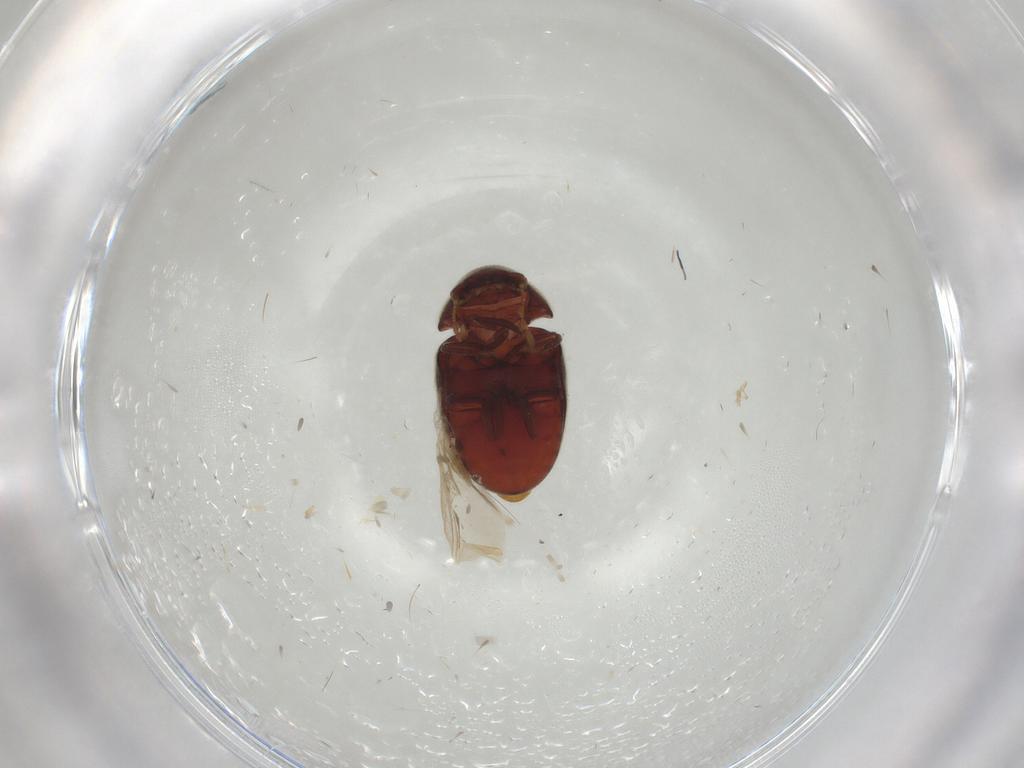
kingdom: Animalia
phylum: Arthropoda
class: Insecta
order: Coleoptera
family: Ptinidae
